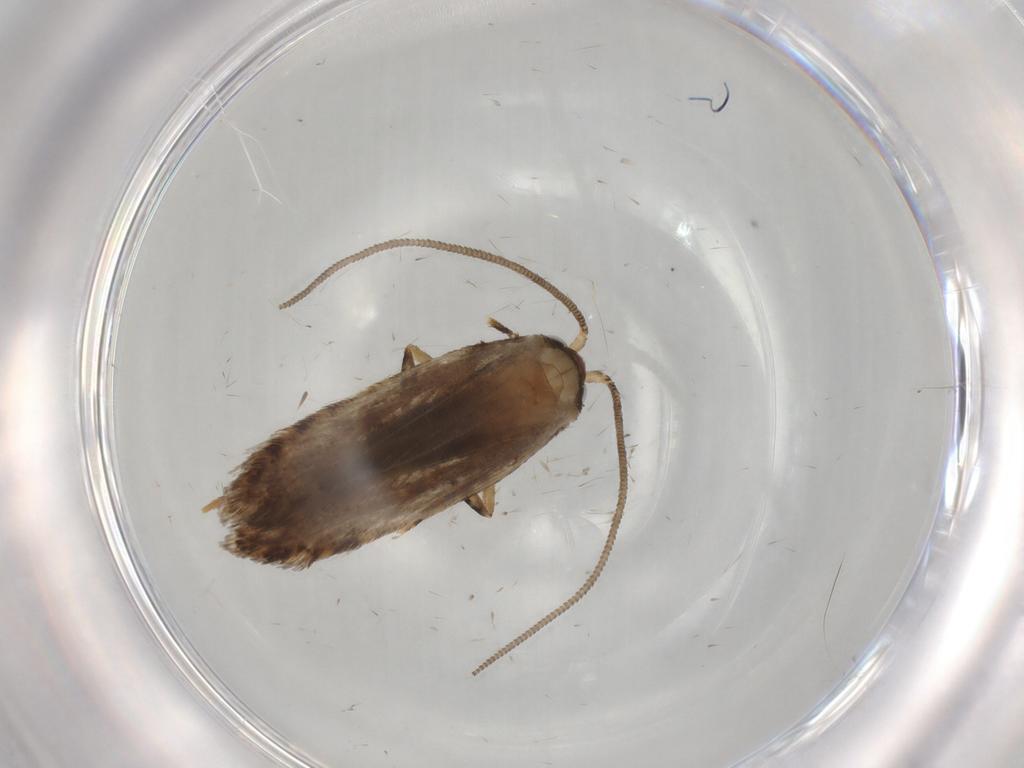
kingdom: Animalia
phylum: Arthropoda
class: Insecta
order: Lepidoptera
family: Tineidae
